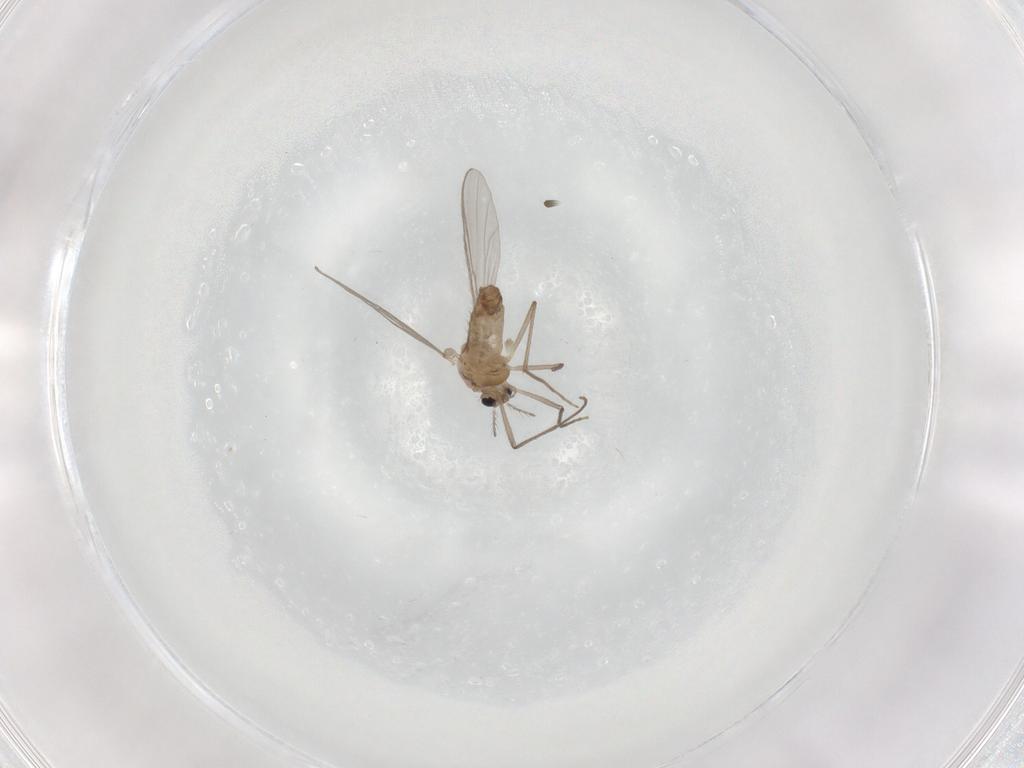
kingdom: Animalia
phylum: Arthropoda
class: Insecta
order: Diptera
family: Chironomidae
